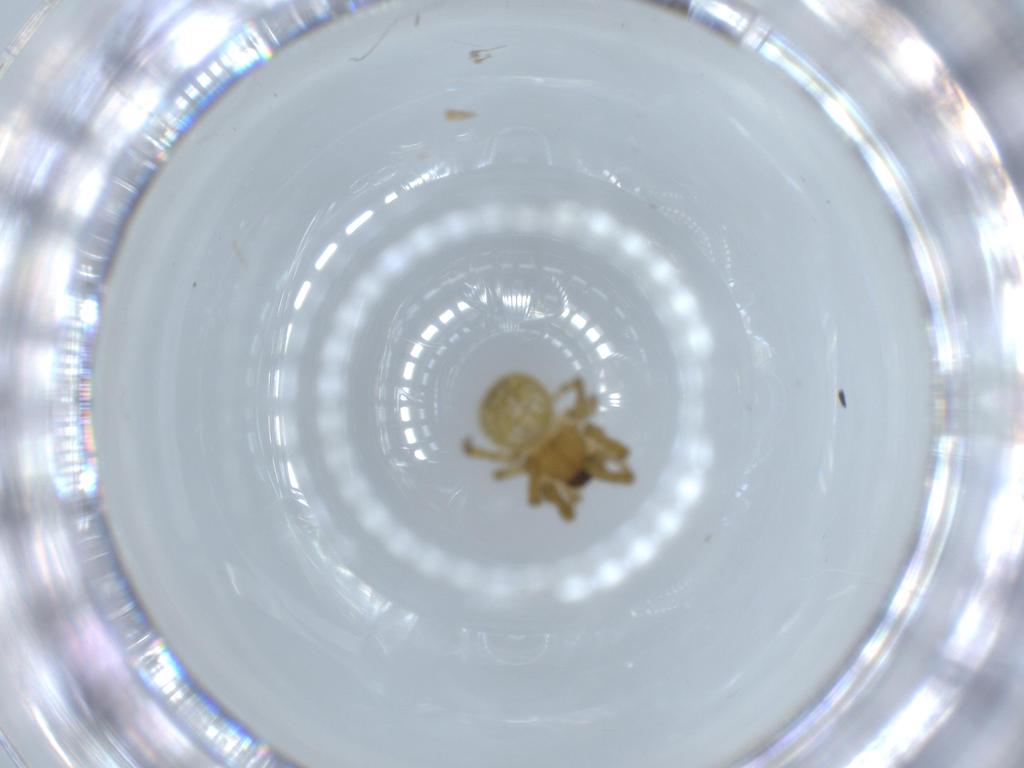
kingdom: Animalia
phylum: Arthropoda
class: Arachnida
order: Araneae
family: Araneidae
